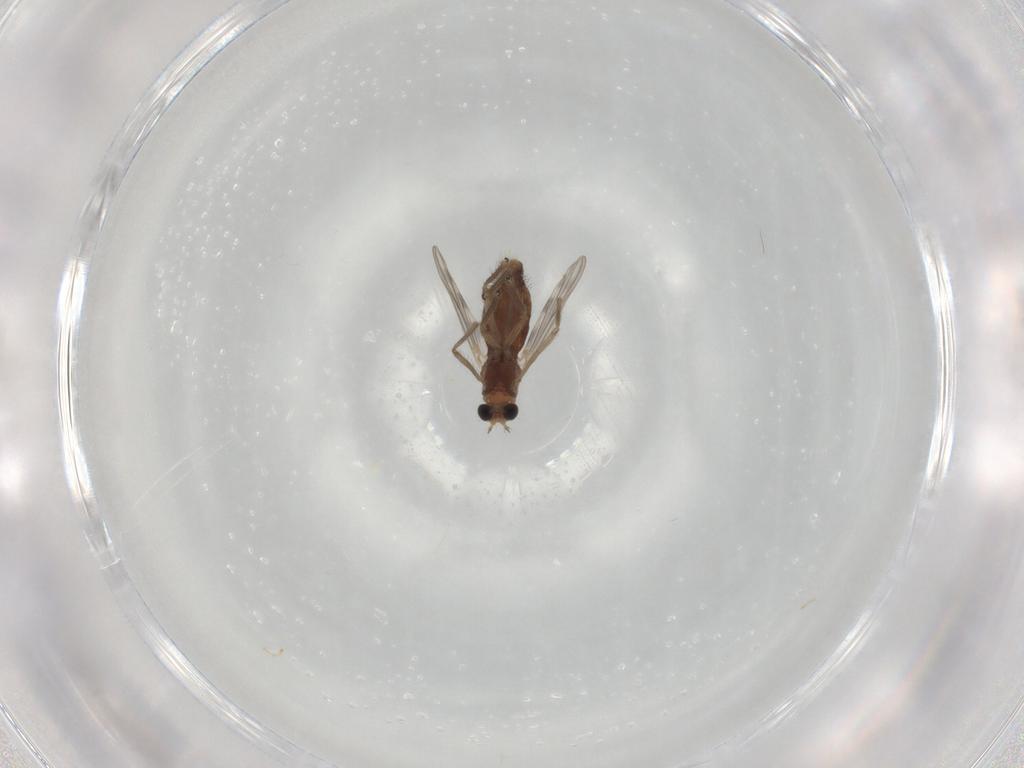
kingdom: Animalia
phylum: Arthropoda
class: Insecta
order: Diptera
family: Chironomidae
